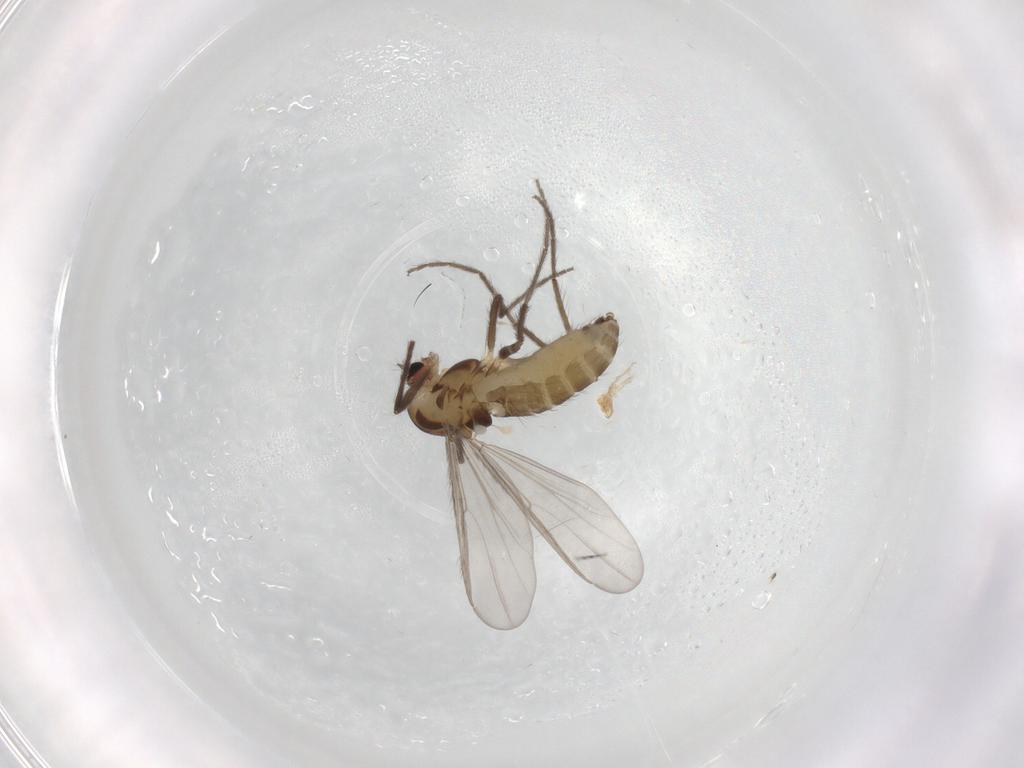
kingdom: Animalia
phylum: Arthropoda
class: Insecta
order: Diptera
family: Chironomidae
